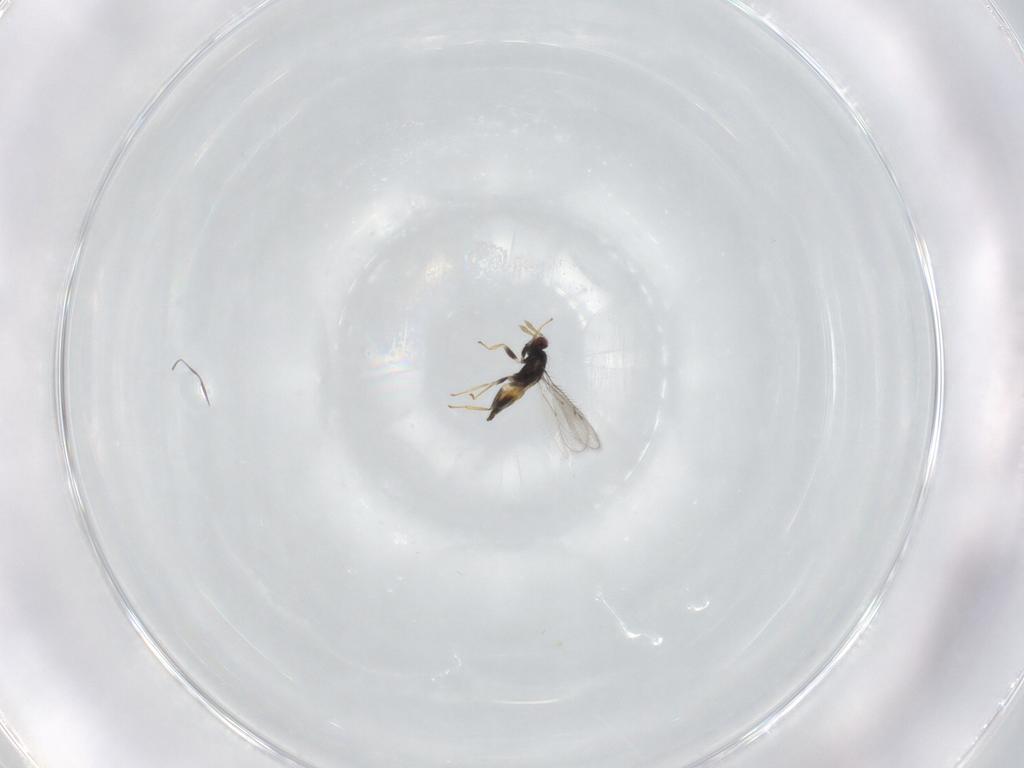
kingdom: Animalia
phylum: Arthropoda
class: Insecta
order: Hymenoptera
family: Eulophidae
